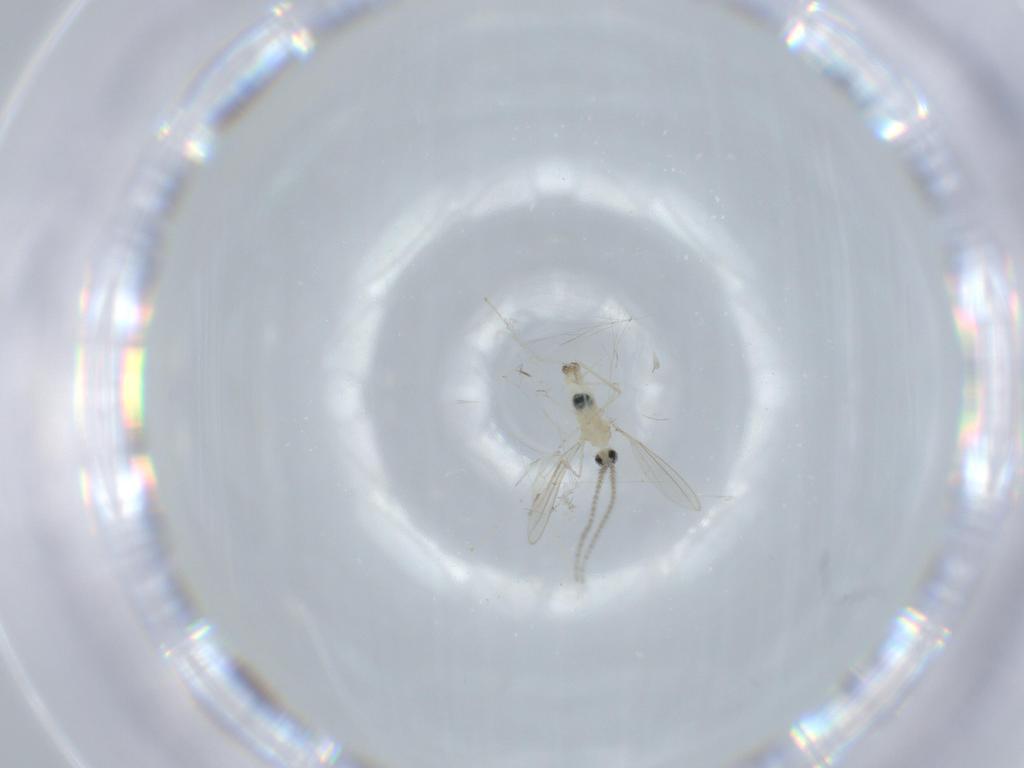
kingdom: Animalia
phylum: Arthropoda
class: Insecta
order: Diptera
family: Cecidomyiidae
